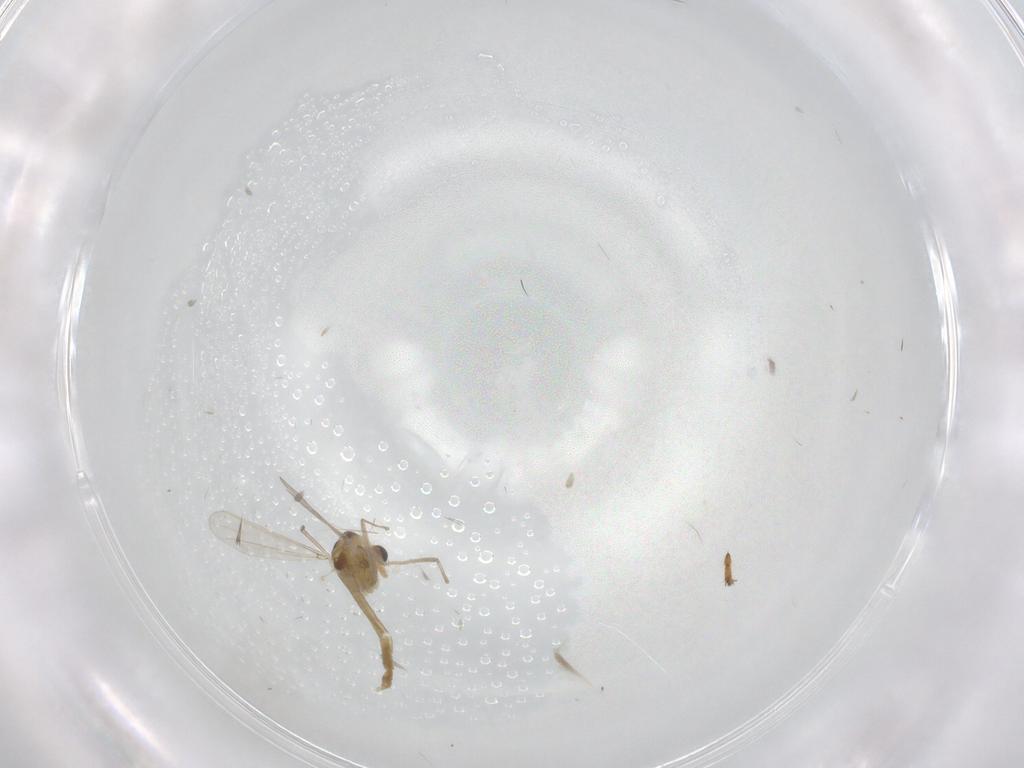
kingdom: Animalia
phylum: Arthropoda
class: Insecta
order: Diptera
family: Chironomidae
